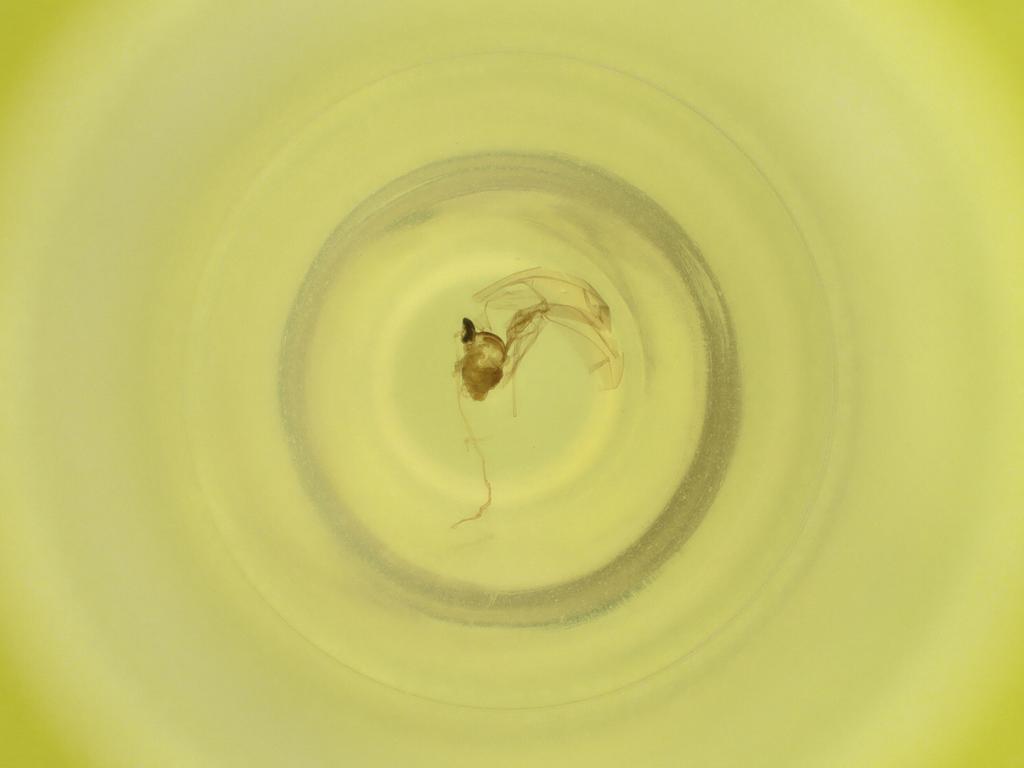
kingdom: Animalia
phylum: Arthropoda
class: Insecta
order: Diptera
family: Cecidomyiidae
